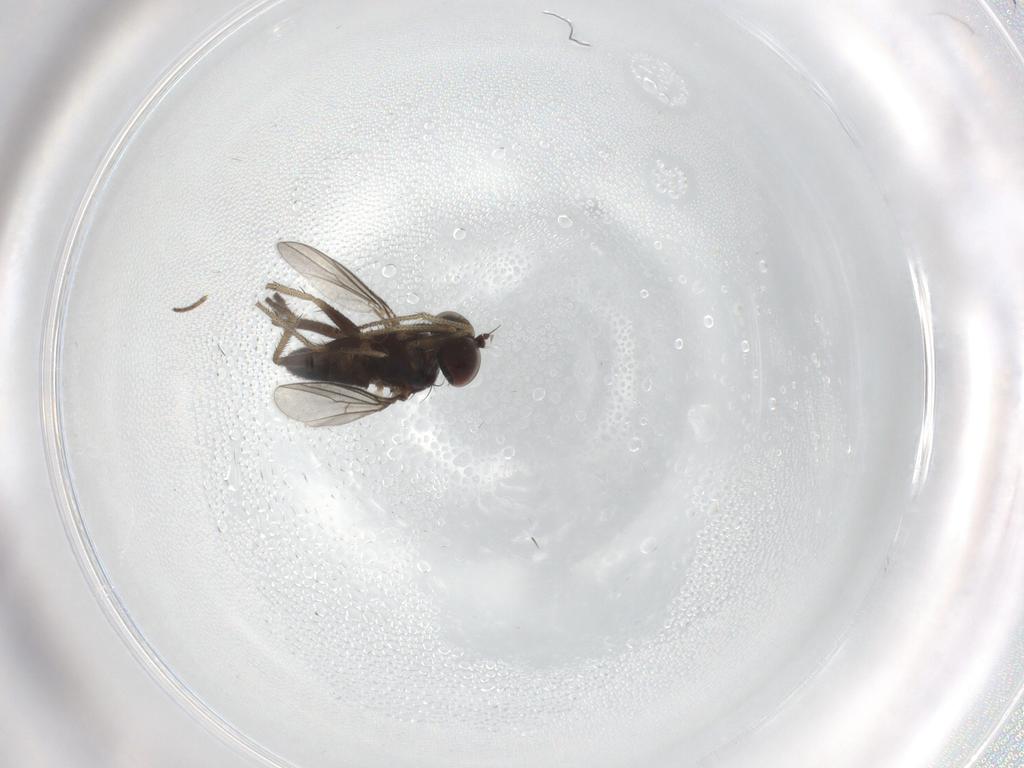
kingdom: Animalia
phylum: Arthropoda
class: Insecta
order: Diptera
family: Dolichopodidae
